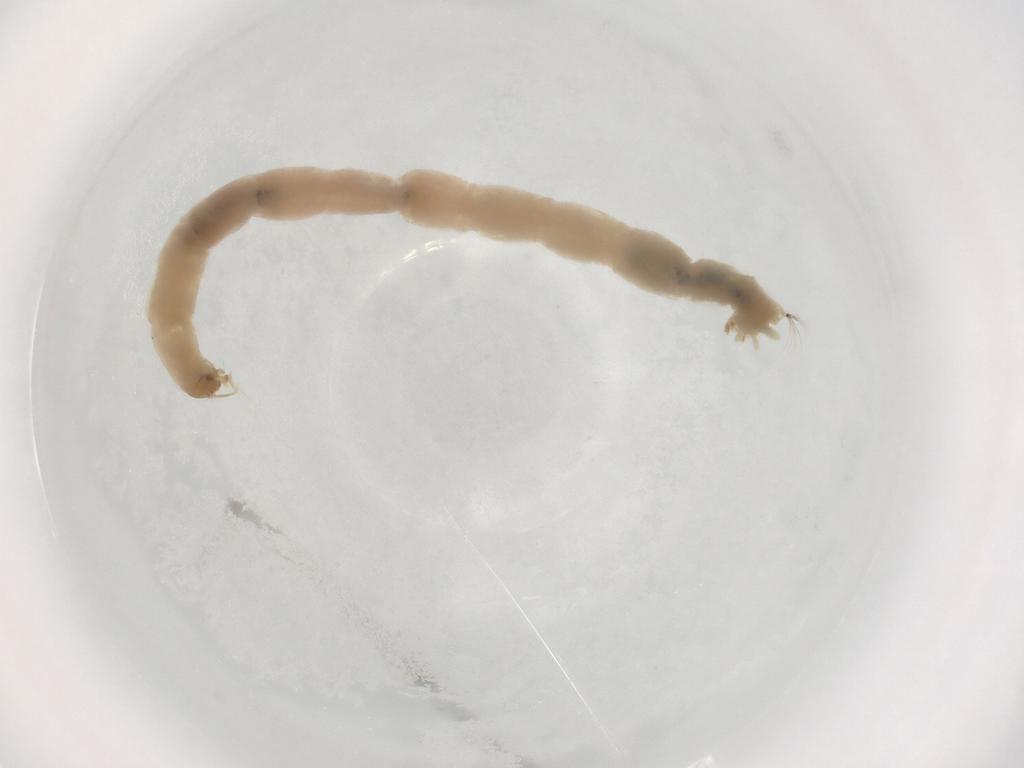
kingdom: Animalia
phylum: Arthropoda
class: Insecta
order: Diptera
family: Chironomidae
